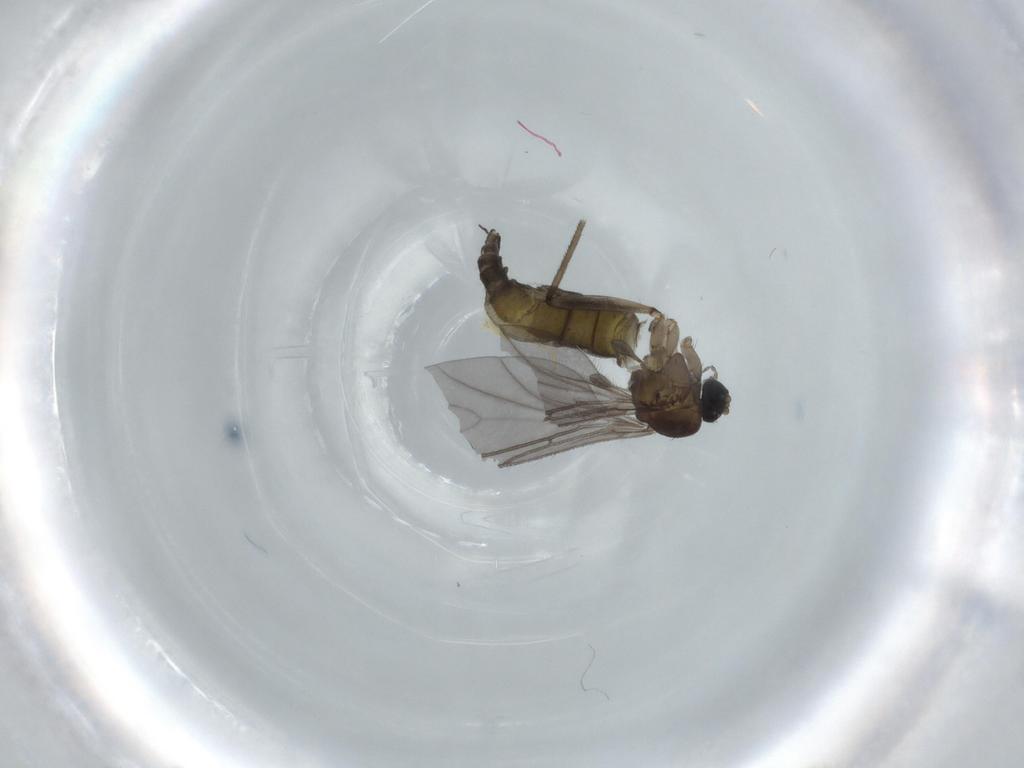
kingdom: Animalia
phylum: Arthropoda
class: Insecta
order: Diptera
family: Sciaridae
